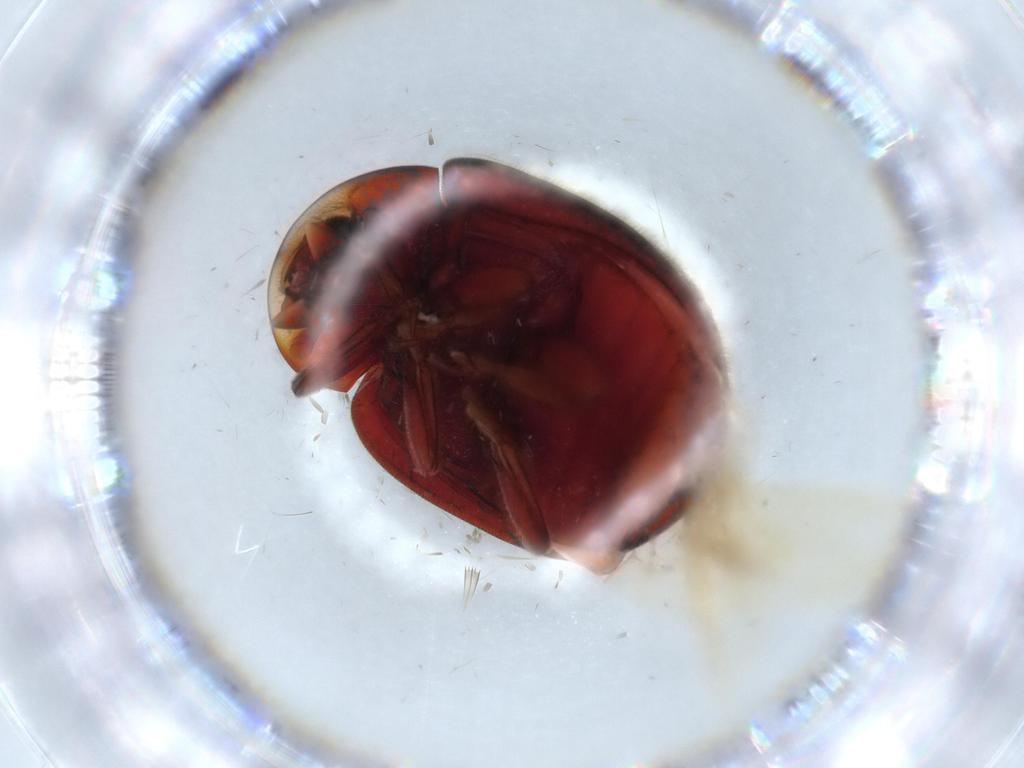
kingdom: Animalia
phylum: Arthropoda
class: Insecta
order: Coleoptera
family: Coccinellidae
